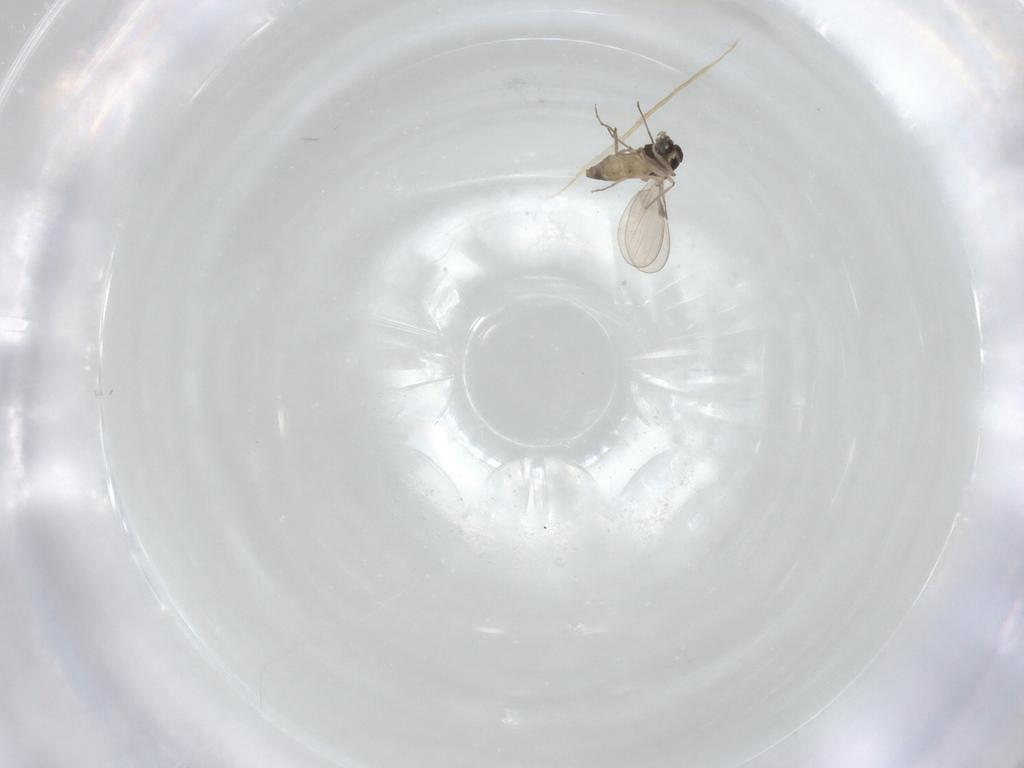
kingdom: Animalia
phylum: Arthropoda
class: Insecta
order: Diptera
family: Chironomidae
